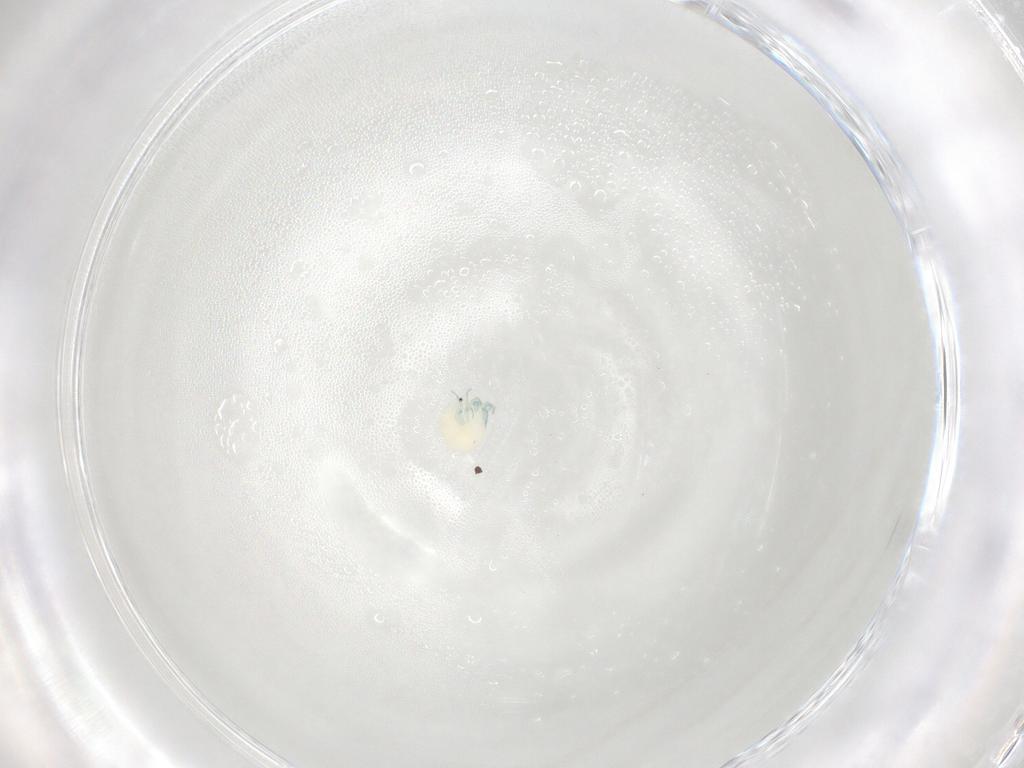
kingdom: Animalia
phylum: Arthropoda
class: Arachnida
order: Trombidiformes
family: Arrenuridae
